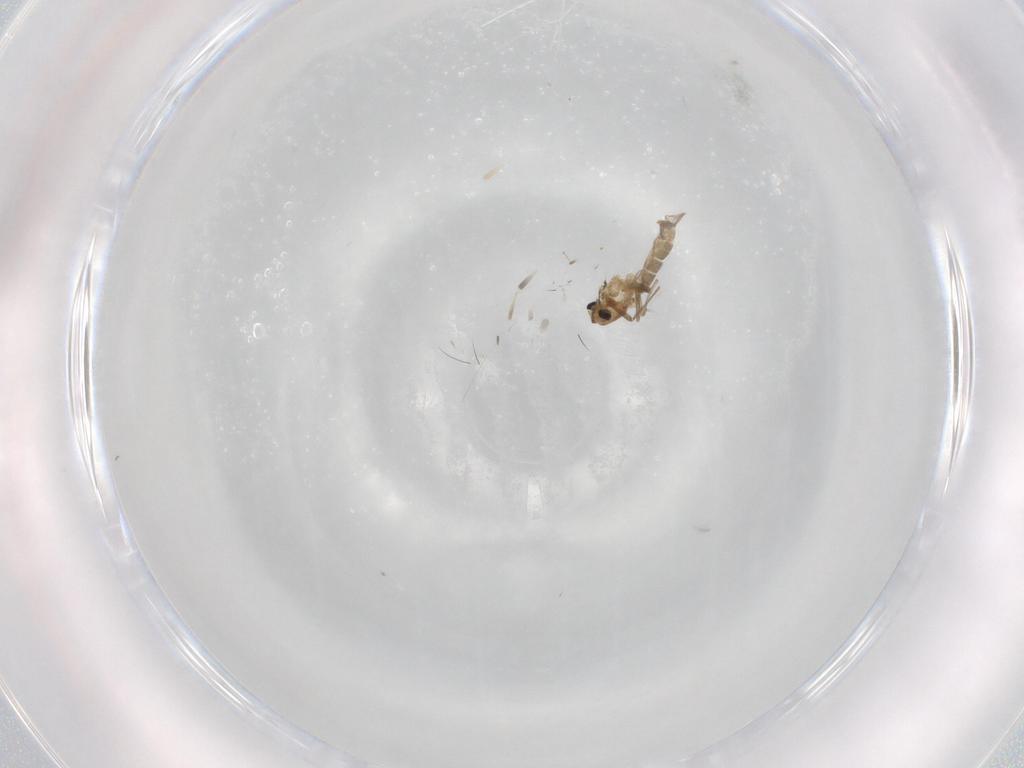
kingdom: Animalia
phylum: Arthropoda
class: Insecta
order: Diptera
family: Chironomidae
